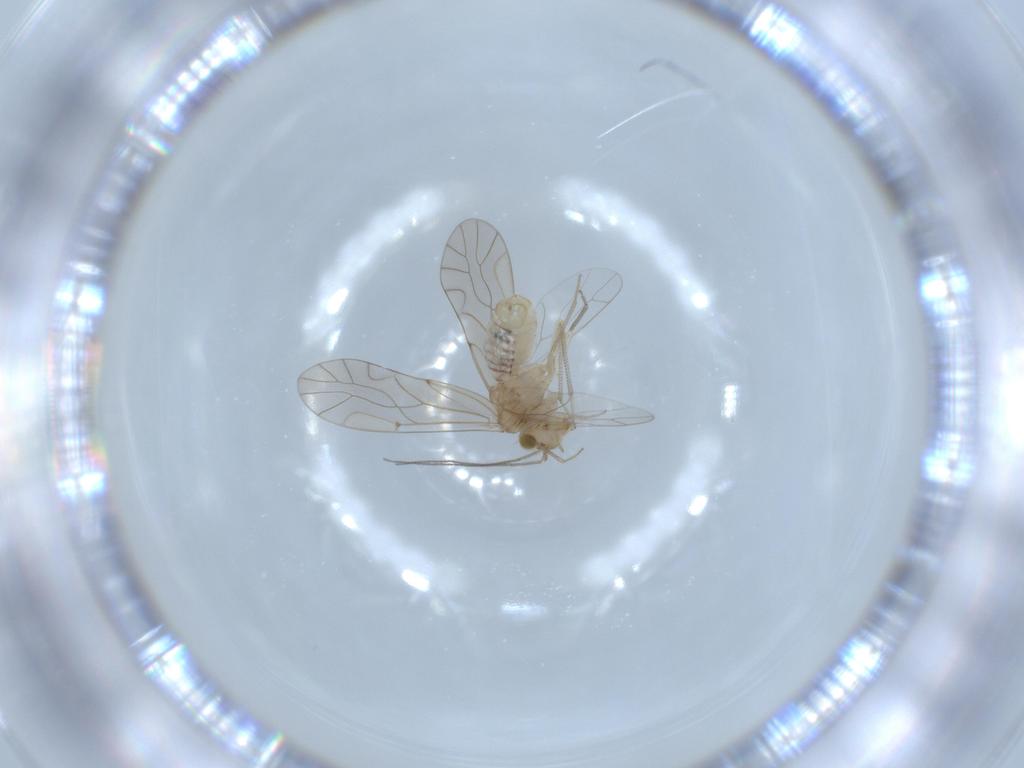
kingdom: Animalia
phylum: Arthropoda
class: Insecta
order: Psocodea
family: Lachesillidae
